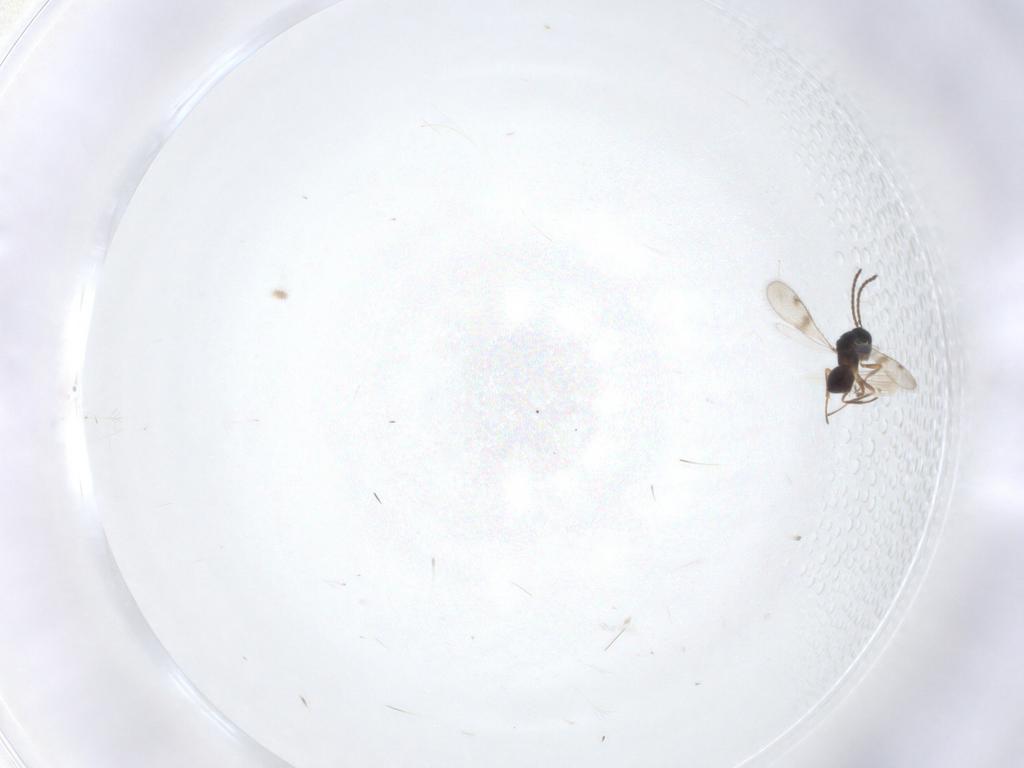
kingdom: Animalia
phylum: Arthropoda
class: Insecta
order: Hymenoptera
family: Diparidae
